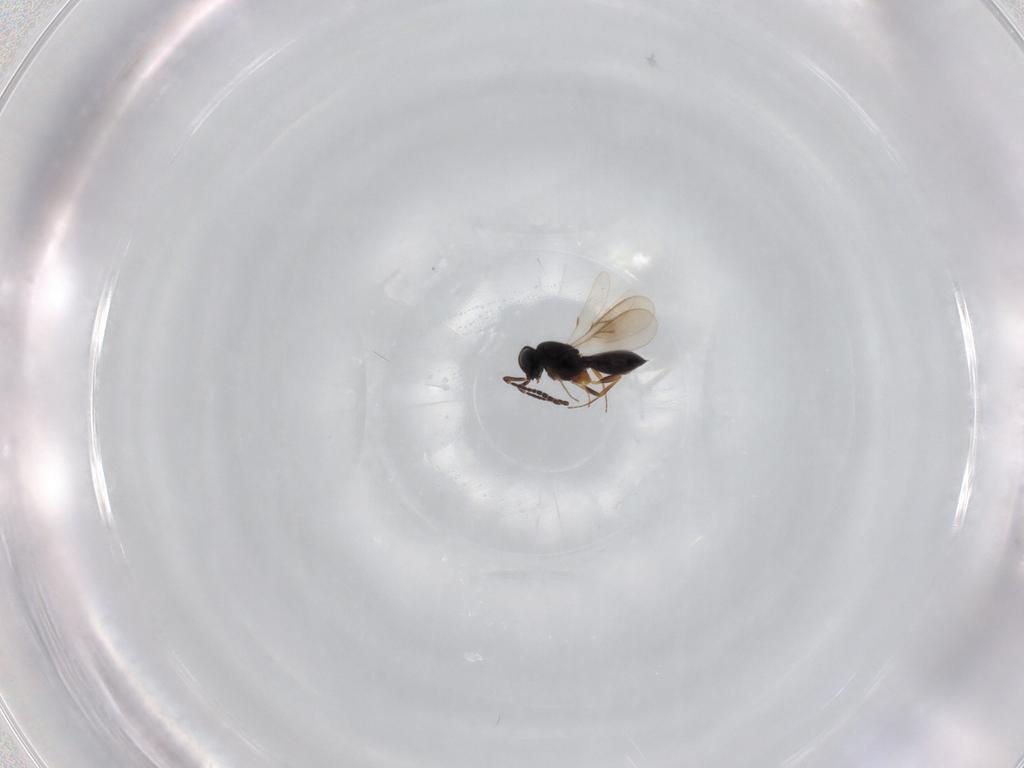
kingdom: Animalia
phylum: Arthropoda
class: Insecta
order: Hymenoptera
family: Scelionidae
